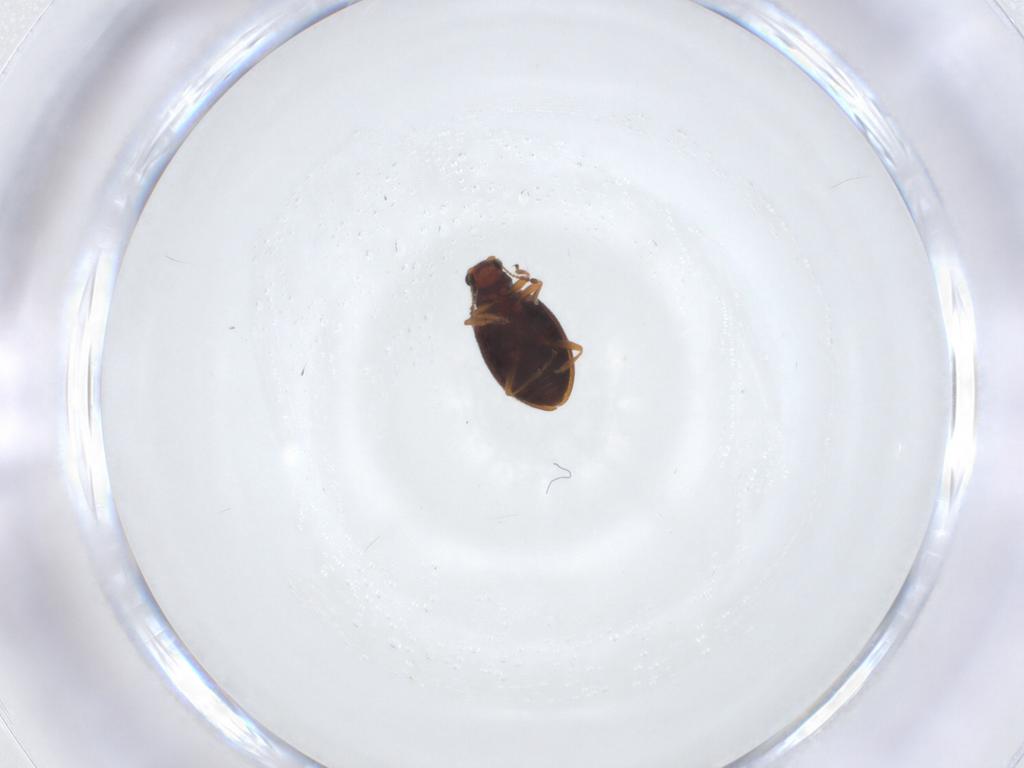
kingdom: Animalia
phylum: Arthropoda
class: Insecta
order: Coleoptera
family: Latridiidae
